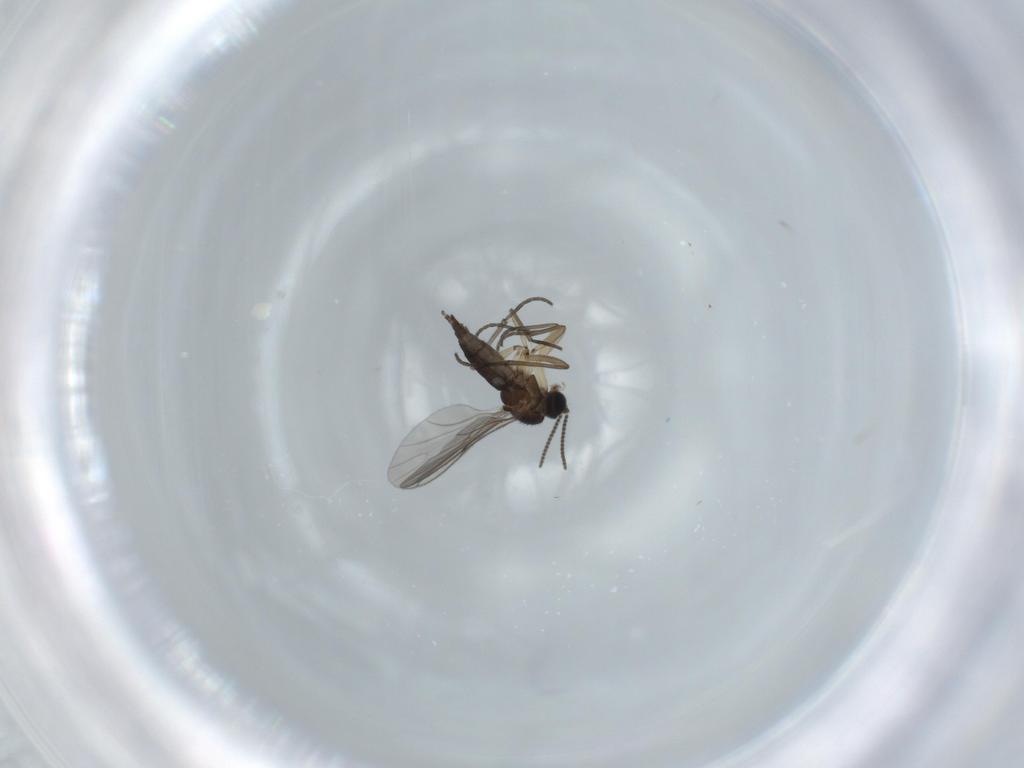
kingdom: Animalia
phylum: Arthropoda
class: Insecta
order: Diptera
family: Sciaridae
